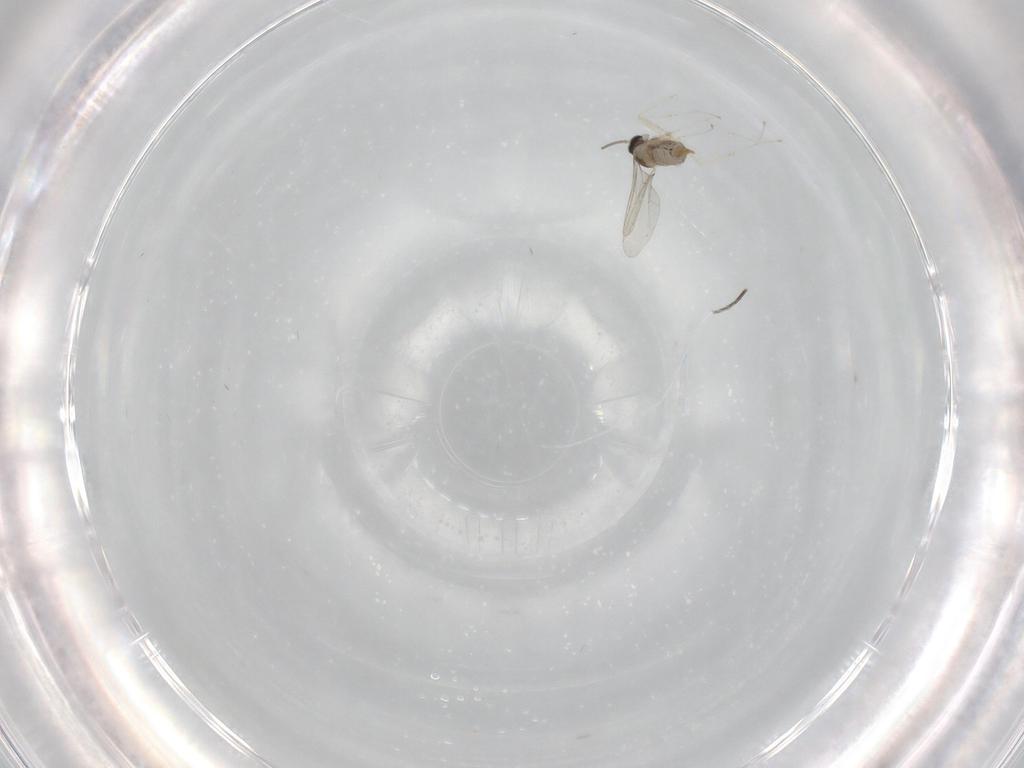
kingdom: Animalia
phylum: Arthropoda
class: Insecta
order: Diptera
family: Cecidomyiidae
